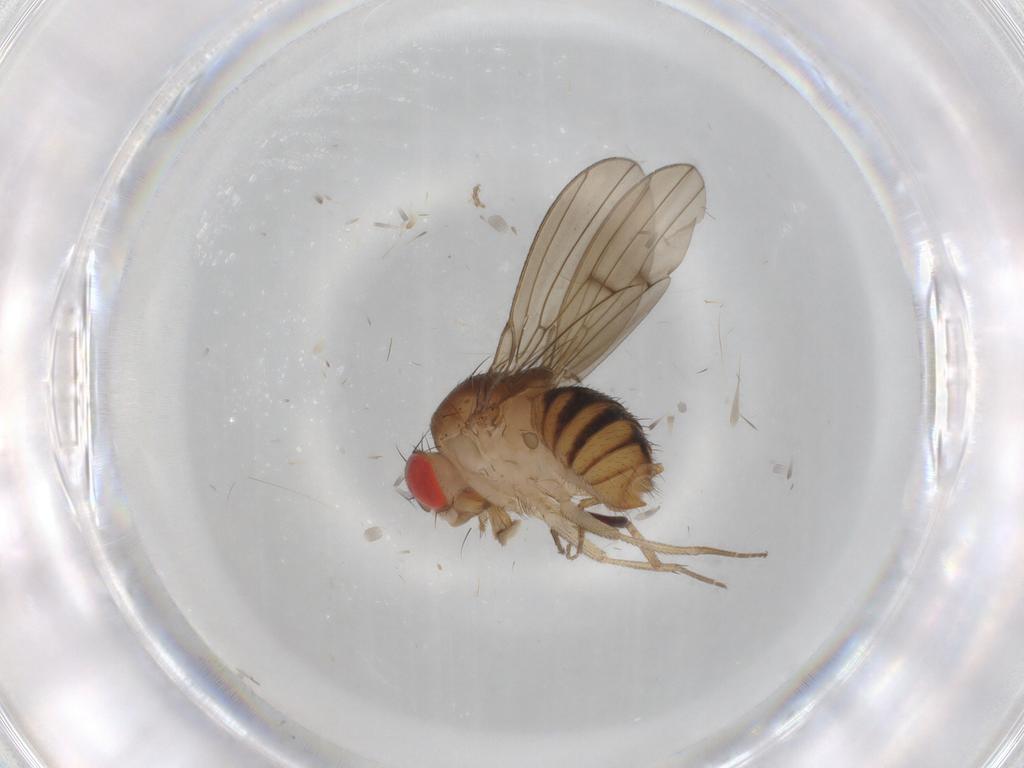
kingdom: Animalia
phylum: Arthropoda
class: Insecta
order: Diptera
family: Drosophilidae
